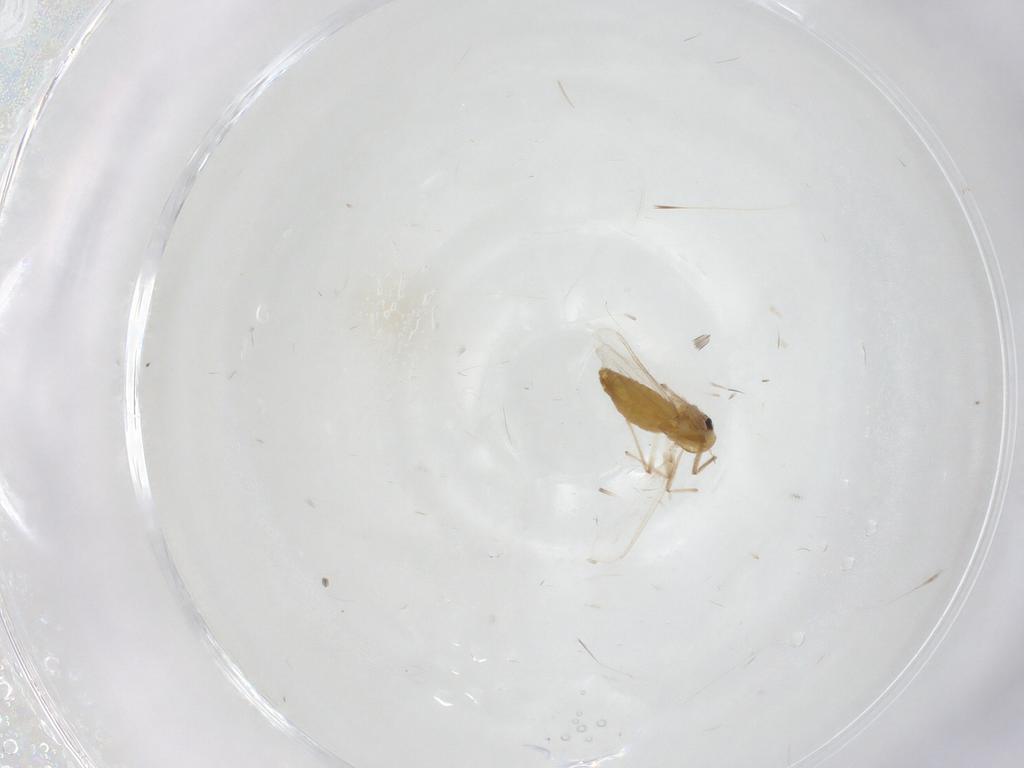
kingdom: Animalia
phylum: Arthropoda
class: Insecta
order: Diptera
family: Chironomidae
